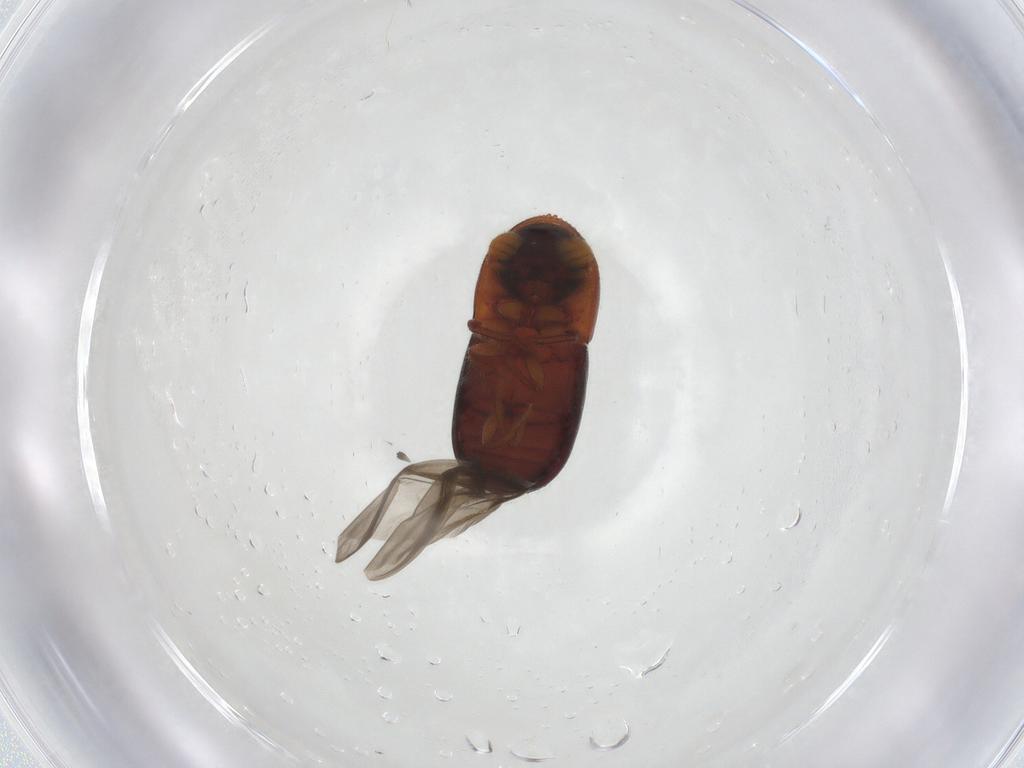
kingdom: Animalia
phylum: Arthropoda
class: Insecta
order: Coleoptera
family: Curculionidae
